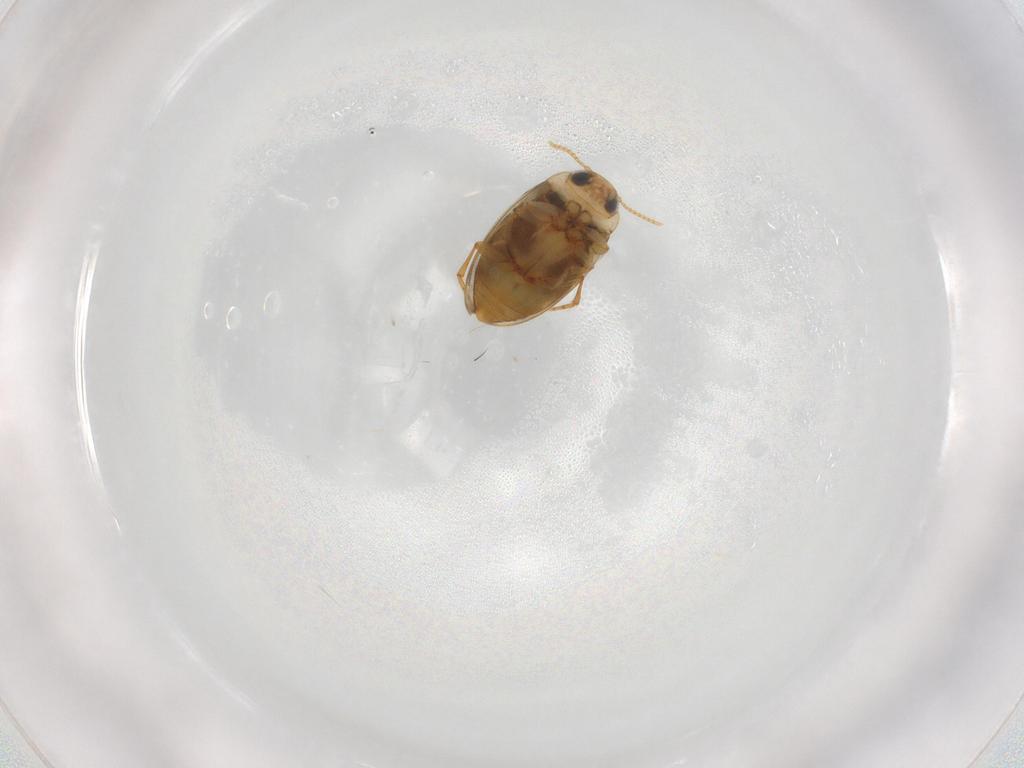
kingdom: Animalia
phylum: Arthropoda
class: Insecta
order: Coleoptera
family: Dytiscidae
